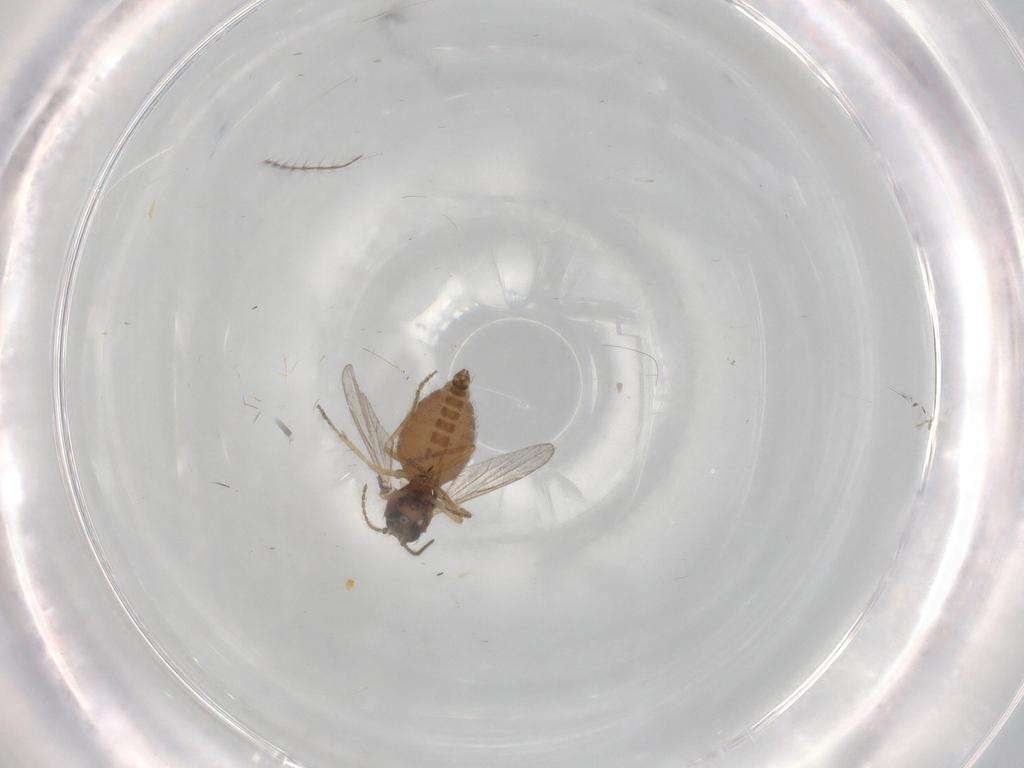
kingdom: Animalia
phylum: Arthropoda
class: Insecta
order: Diptera
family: Ceratopogonidae
